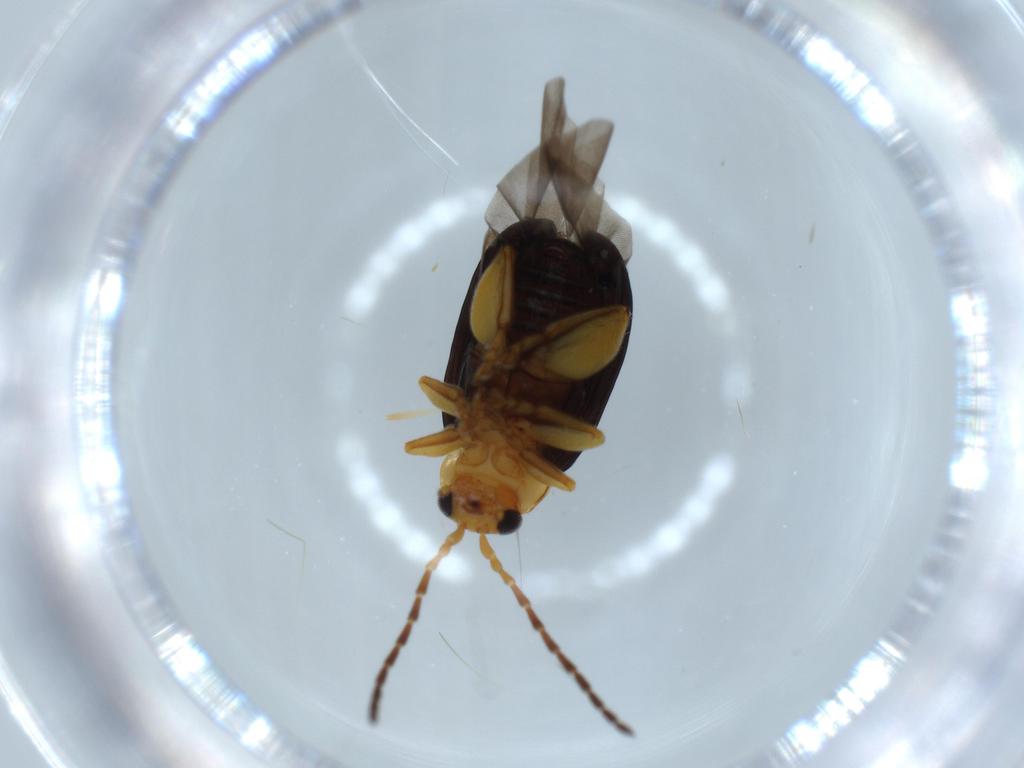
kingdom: Animalia
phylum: Arthropoda
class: Insecta
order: Coleoptera
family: Chrysomelidae
